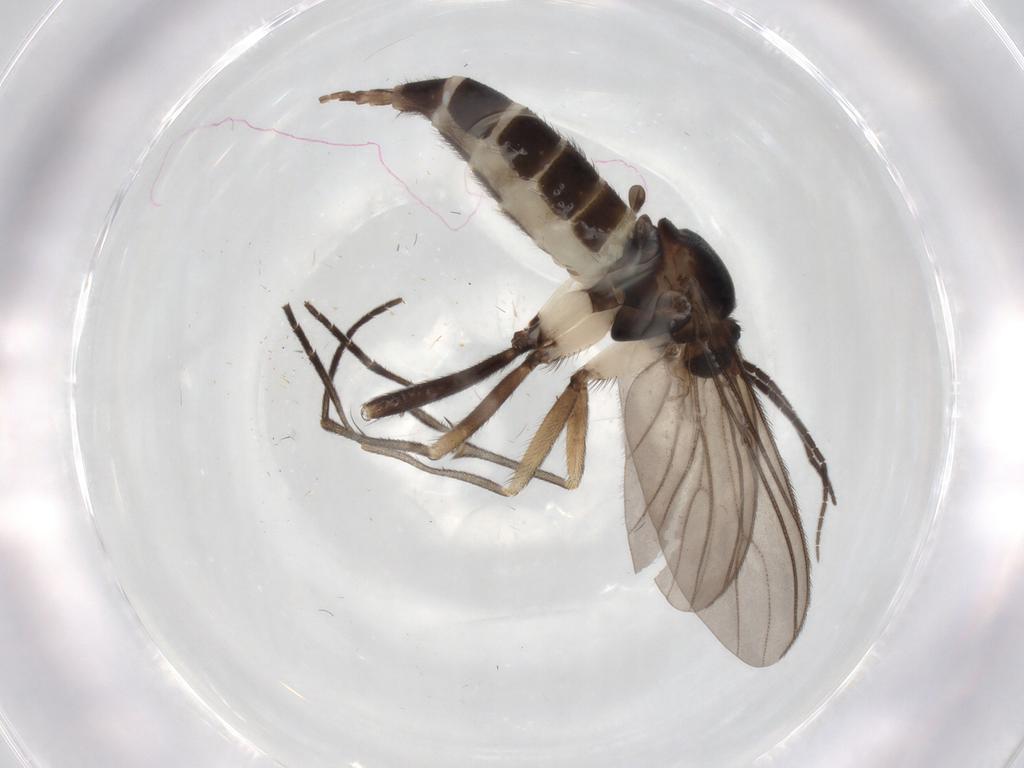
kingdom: Animalia
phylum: Arthropoda
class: Insecta
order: Diptera
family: Sciaridae
